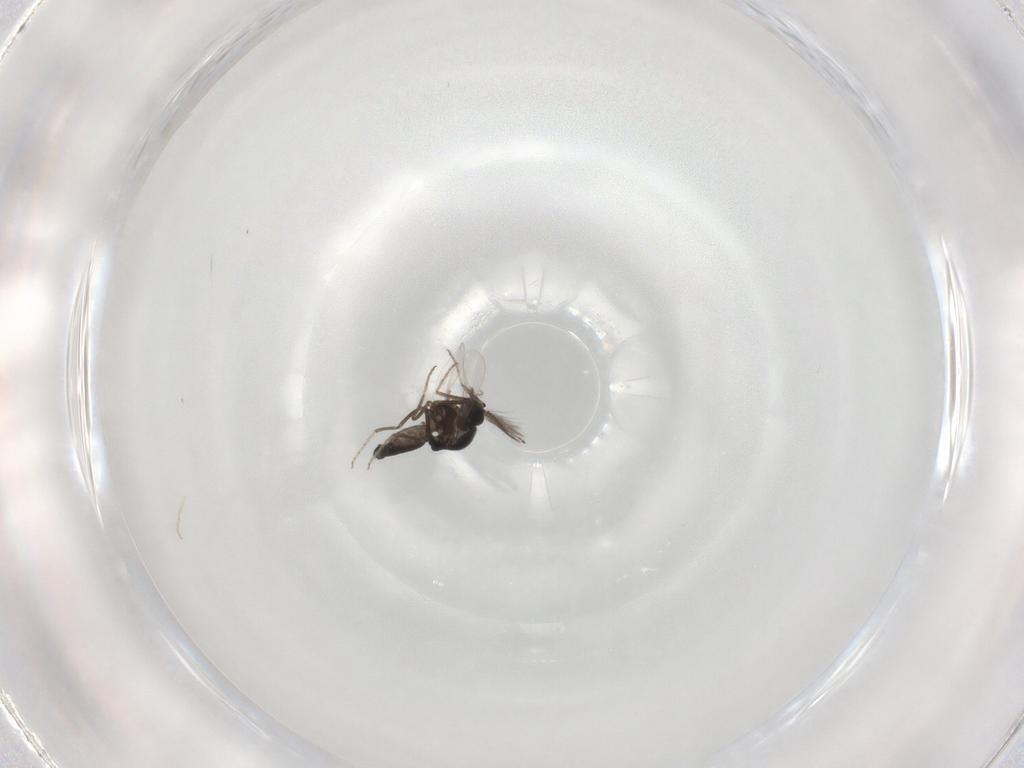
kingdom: Animalia
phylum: Arthropoda
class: Insecta
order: Diptera
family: Ceratopogonidae
